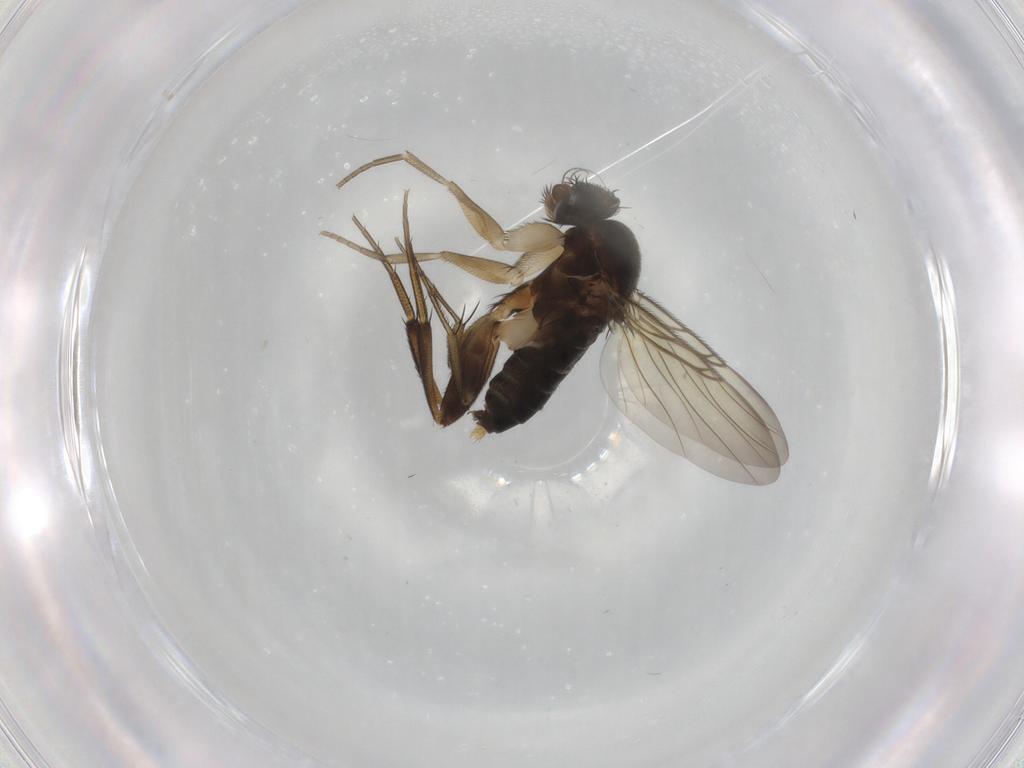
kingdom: Animalia
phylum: Arthropoda
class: Insecta
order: Diptera
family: Phoridae
